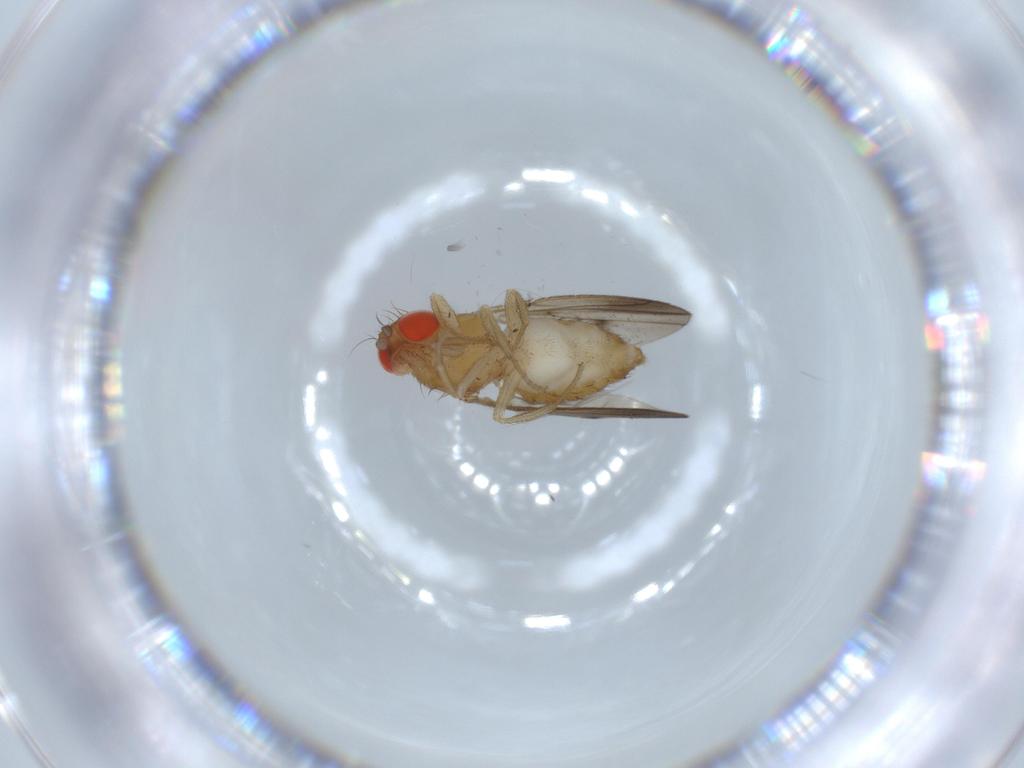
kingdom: Animalia
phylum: Arthropoda
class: Insecta
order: Diptera
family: Drosophilidae
